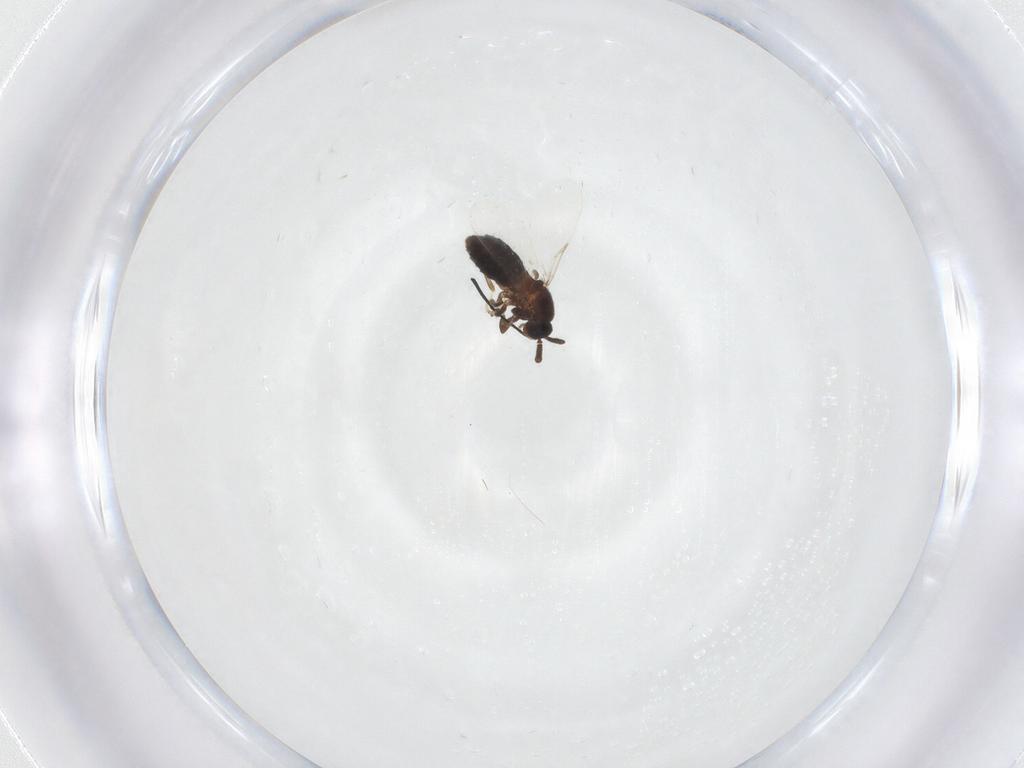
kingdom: Animalia
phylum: Arthropoda
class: Insecta
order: Diptera
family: Scatopsidae
